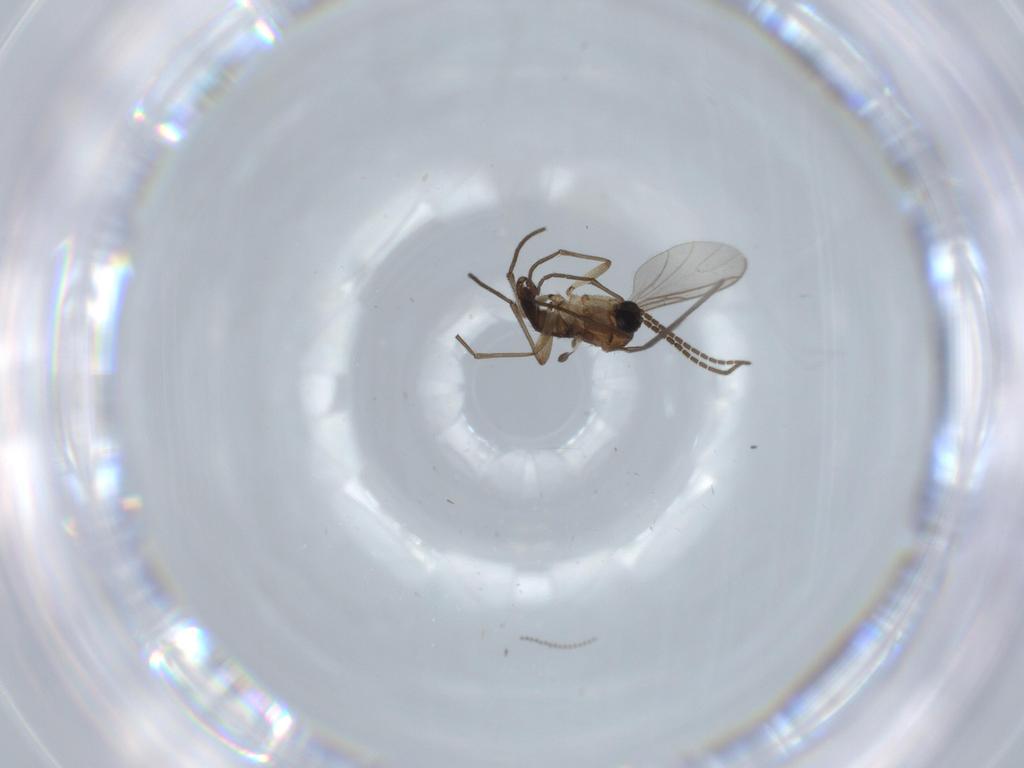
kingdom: Animalia
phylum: Arthropoda
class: Insecta
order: Diptera
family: Sciaridae
